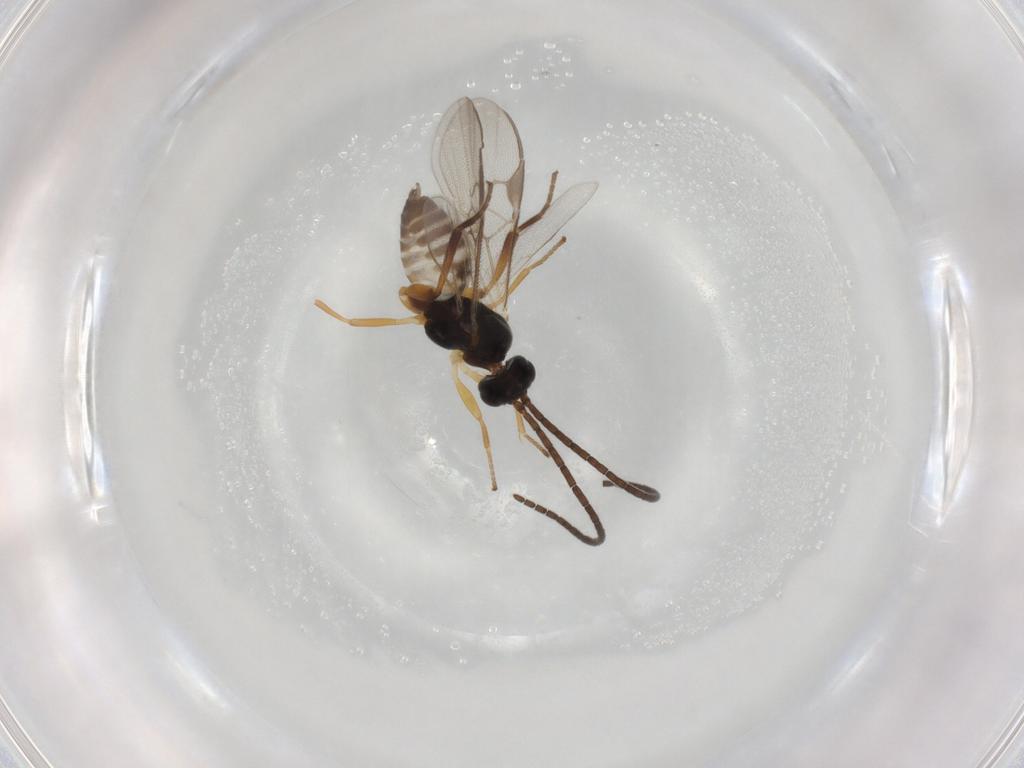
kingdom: Animalia
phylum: Arthropoda
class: Insecta
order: Hymenoptera
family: Braconidae
